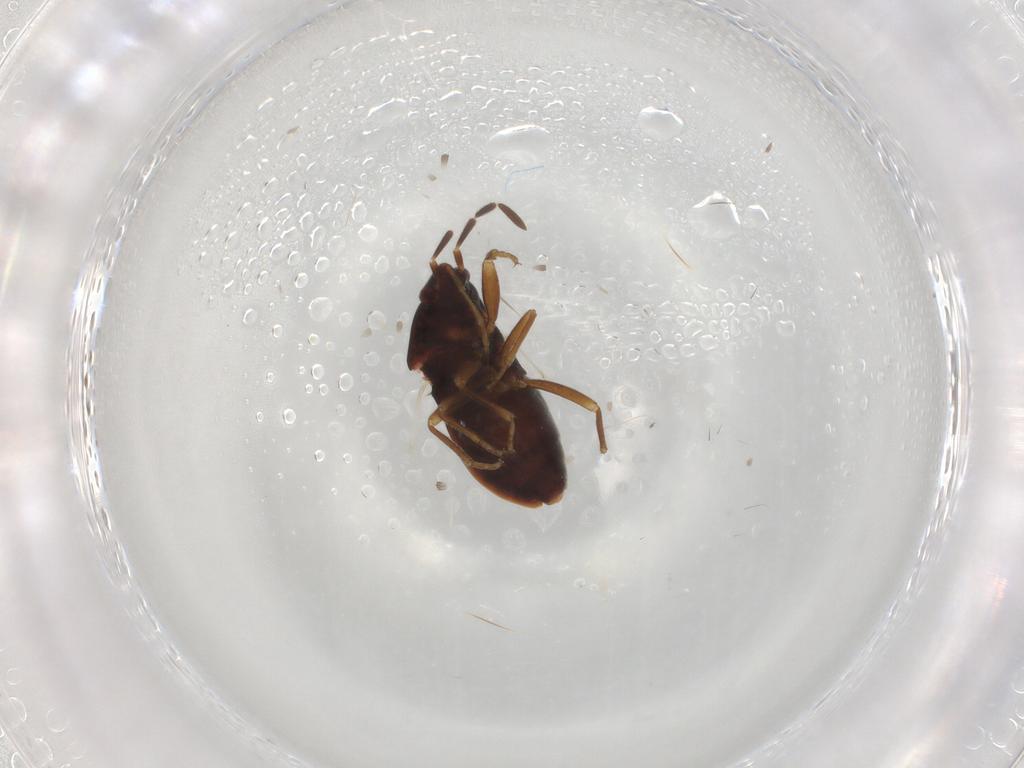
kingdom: Animalia
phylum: Arthropoda
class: Insecta
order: Hemiptera
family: Rhyparochromidae
